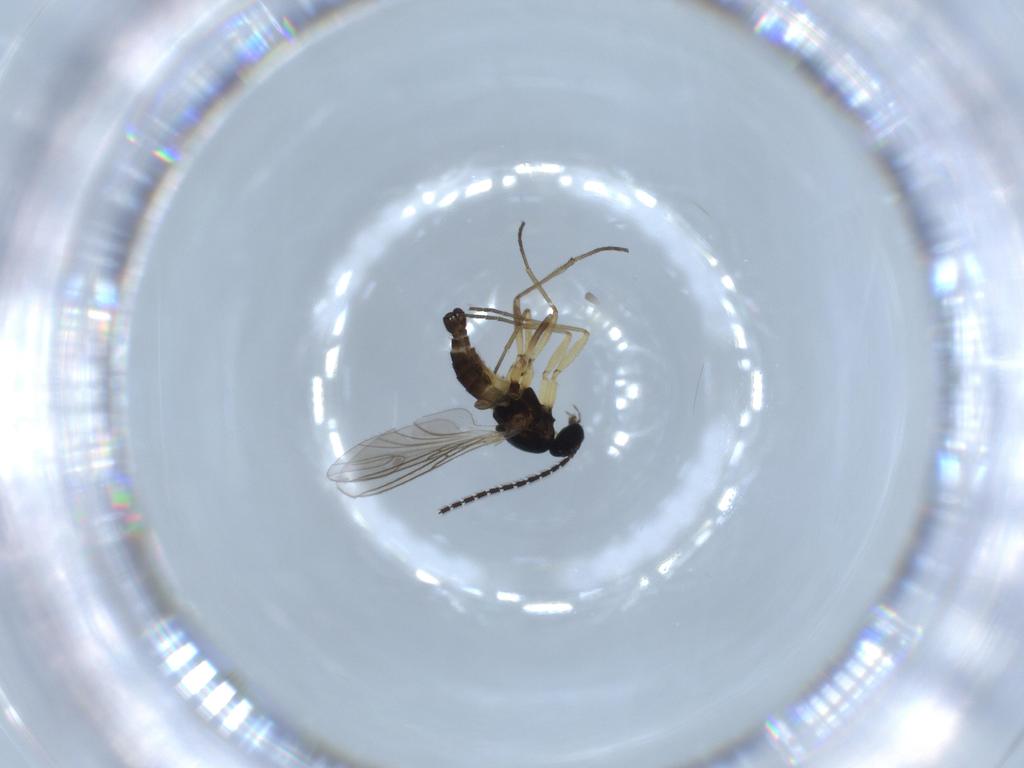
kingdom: Animalia
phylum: Arthropoda
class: Insecta
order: Diptera
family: Sciaridae
